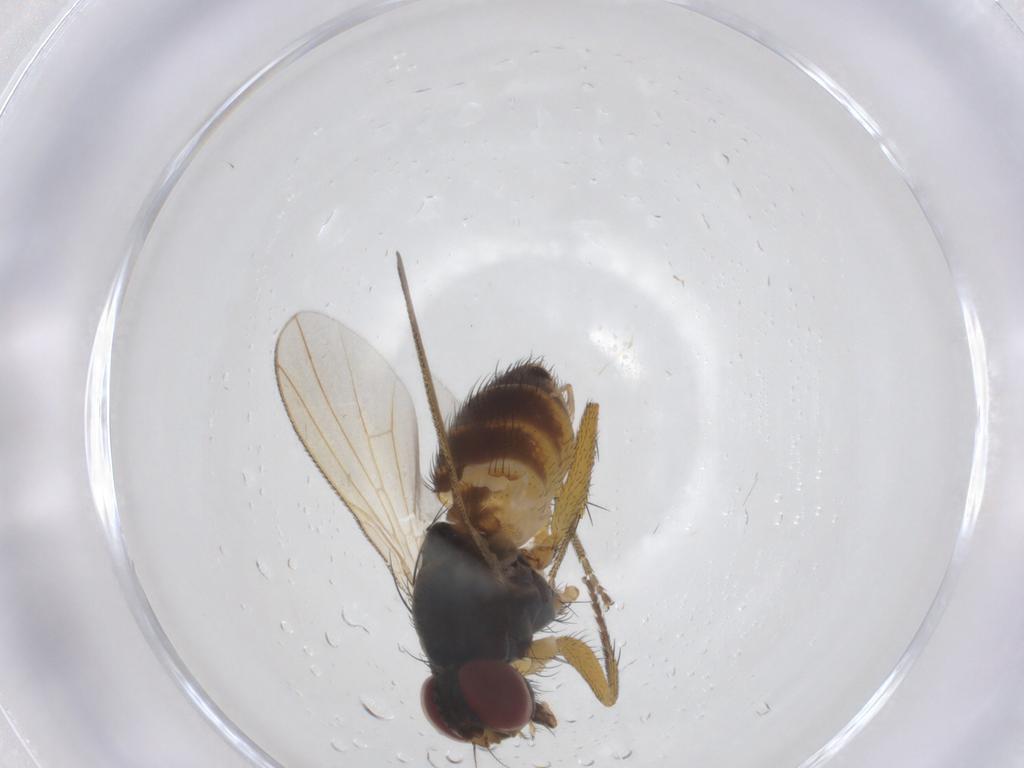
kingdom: Animalia
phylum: Arthropoda
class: Insecta
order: Diptera
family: Muscidae
